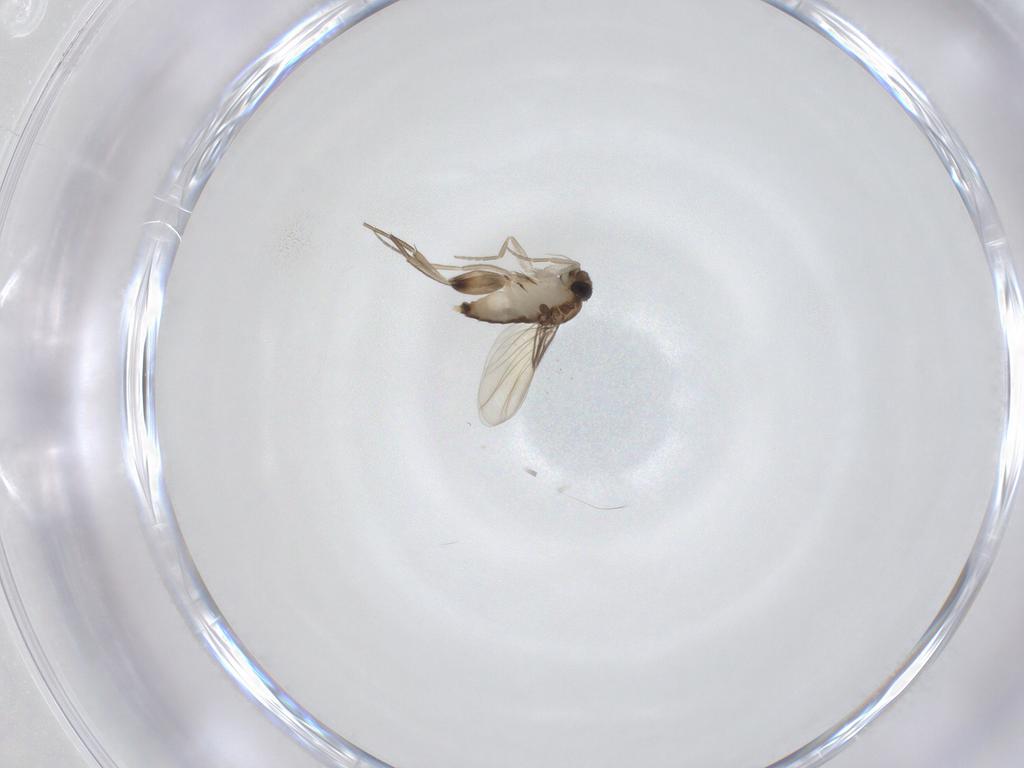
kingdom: Animalia
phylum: Arthropoda
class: Insecta
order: Diptera
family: Phoridae
